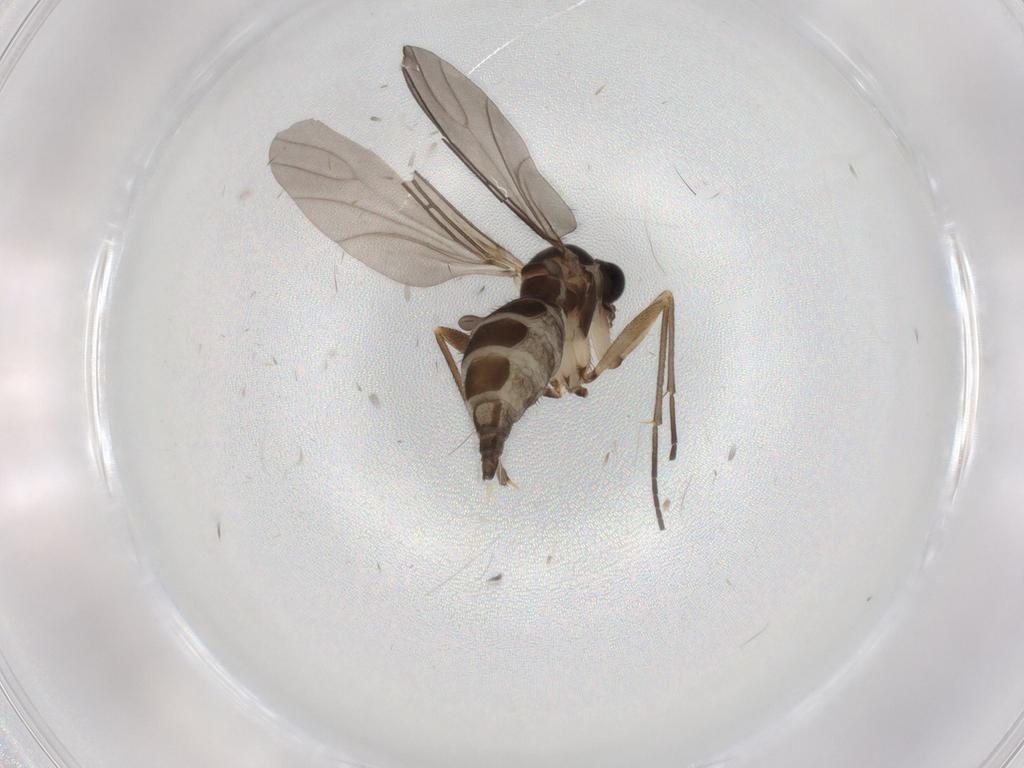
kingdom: Animalia
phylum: Arthropoda
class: Insecta
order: Diptera
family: Sciaridae
